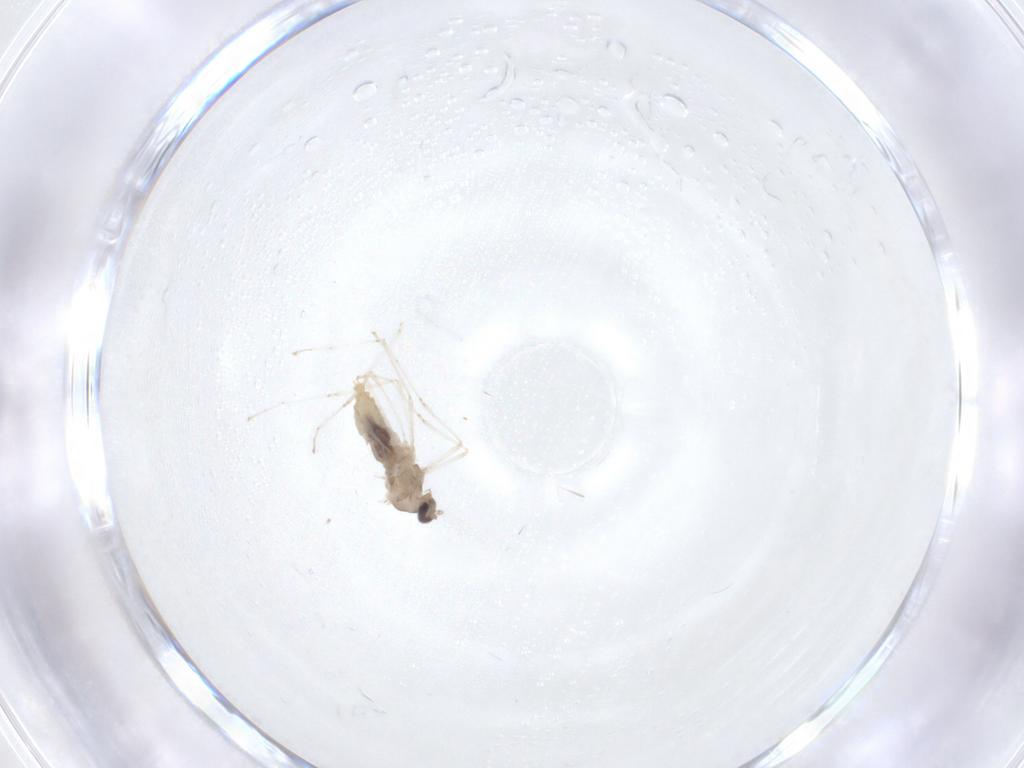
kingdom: Animalia
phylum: Arthropoda
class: Insecta
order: Diptera
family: Cecidomyiidae
